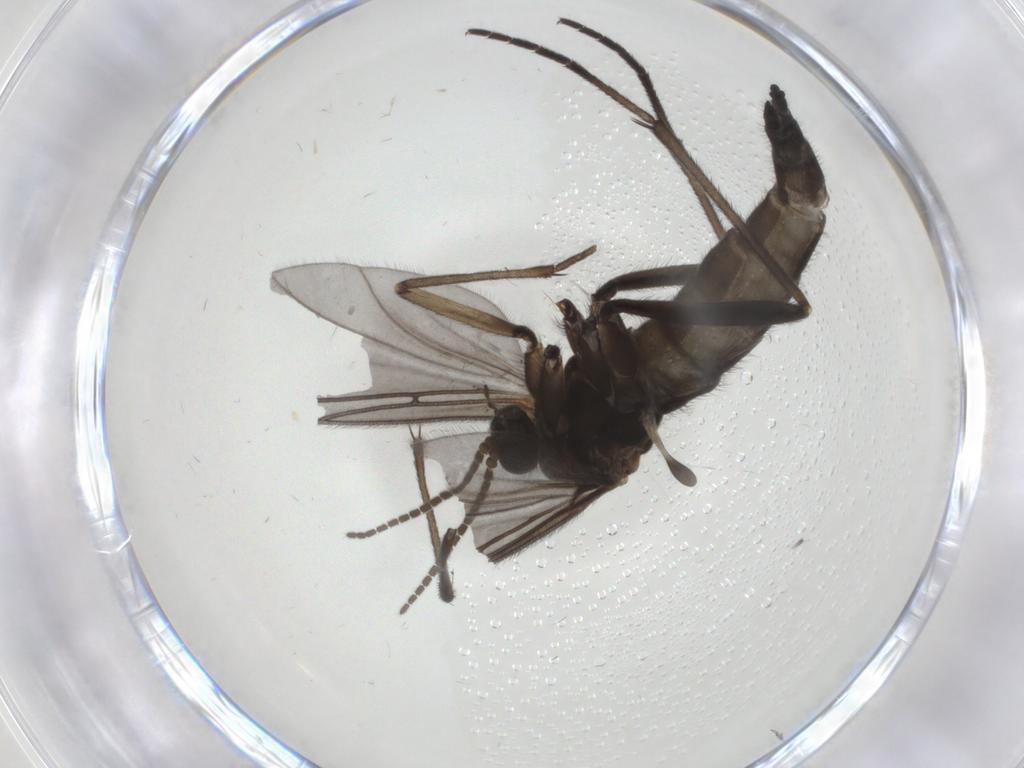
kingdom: Animalia
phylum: Arthropoda
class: Insecta
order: Diptera
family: Sciaridae
